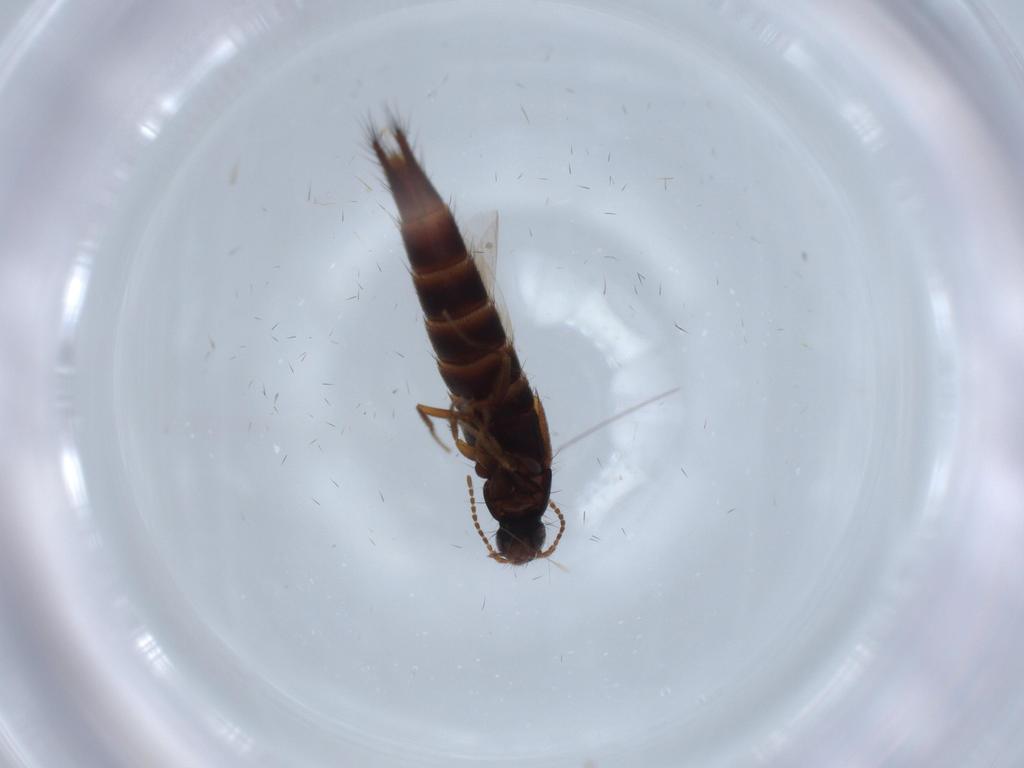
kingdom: Animalia
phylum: Arthropoda
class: Insecta
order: Coleoptera
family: Staphylinidae
